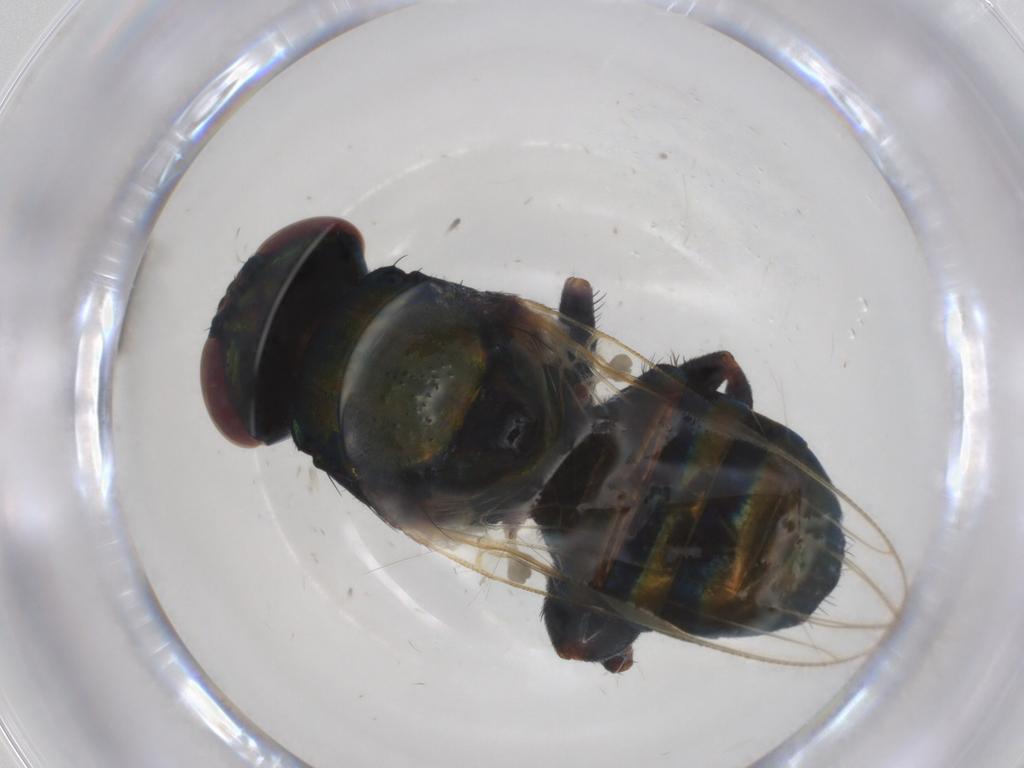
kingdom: Animalia
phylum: Arthropoda
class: Insecta
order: Diptera
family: Ulidiidae
